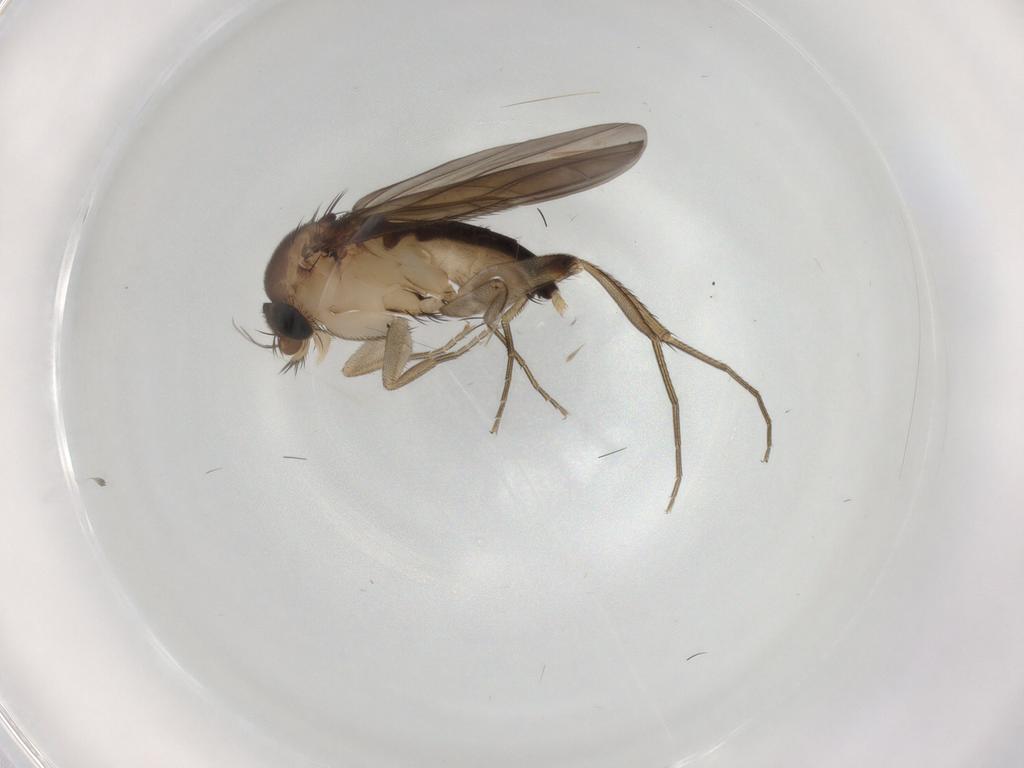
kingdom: Animalia
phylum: Arthropoda
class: Insecta
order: Diptera
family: Phoridae
